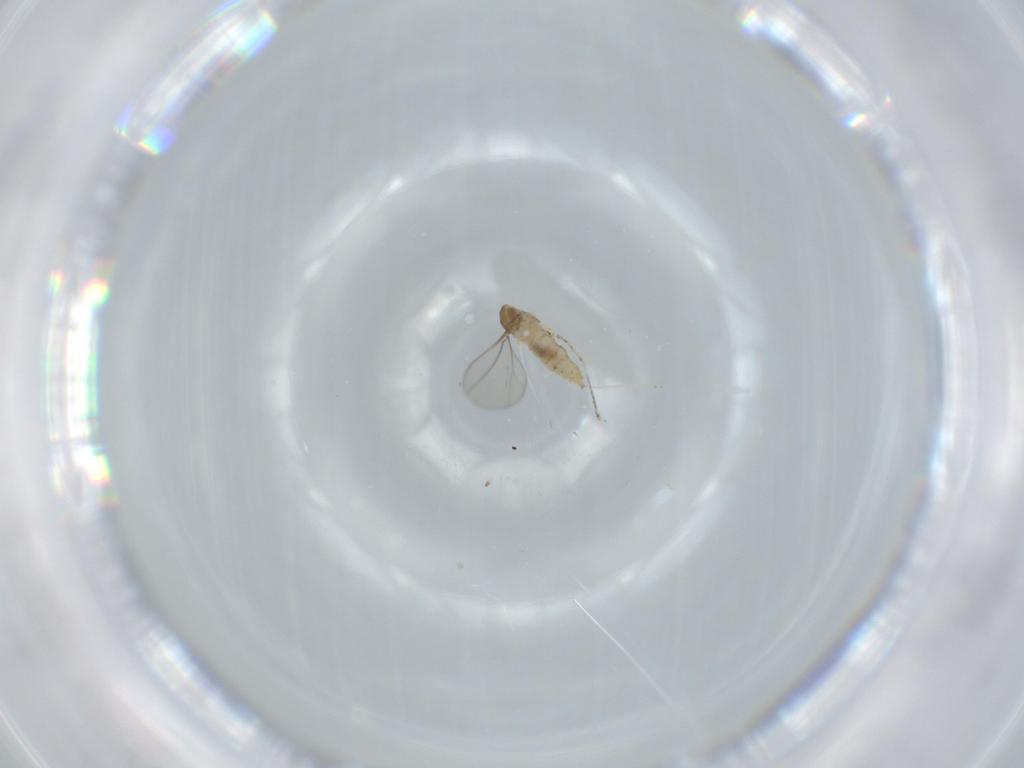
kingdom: Animalia
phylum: Arthropoda
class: Insecta
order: Diptera
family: Cecidomyiidae
